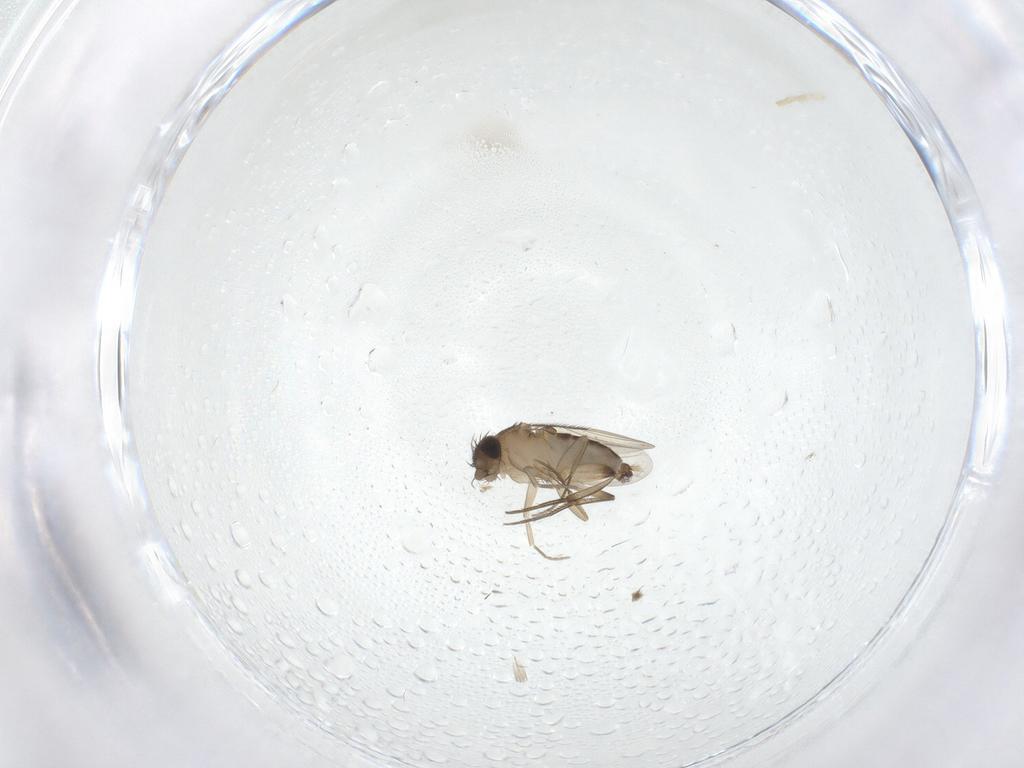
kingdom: Animalia
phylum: Arthropoda
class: Insecta
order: Diptera
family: Phoridae
